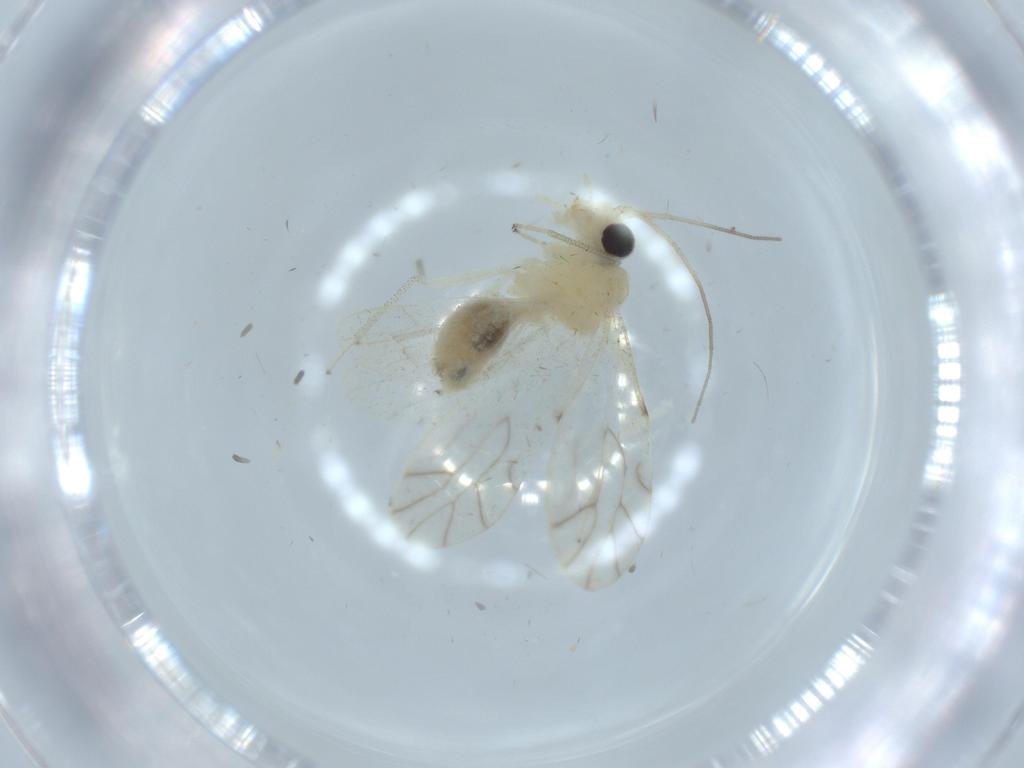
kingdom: Animalia
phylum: Arthropoda
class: Insecta
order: Psocodea
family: Caeciliusidae
